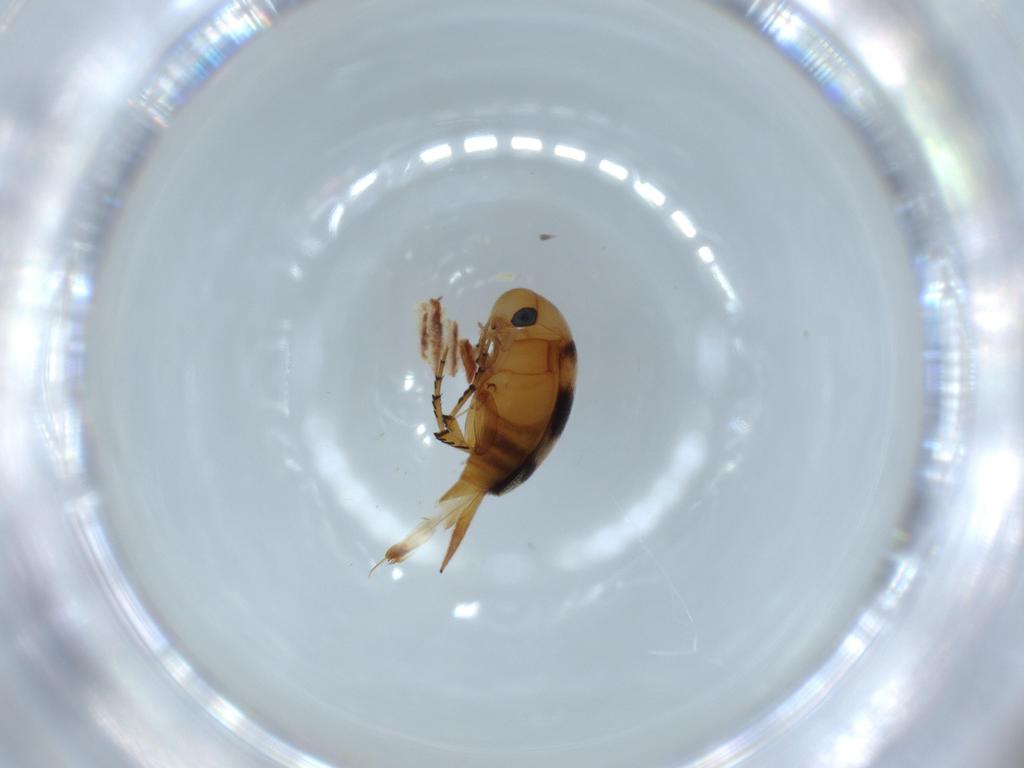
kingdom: Animalia
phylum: Arthropoda
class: Insecta
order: Coleoptera
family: Mordellidae
